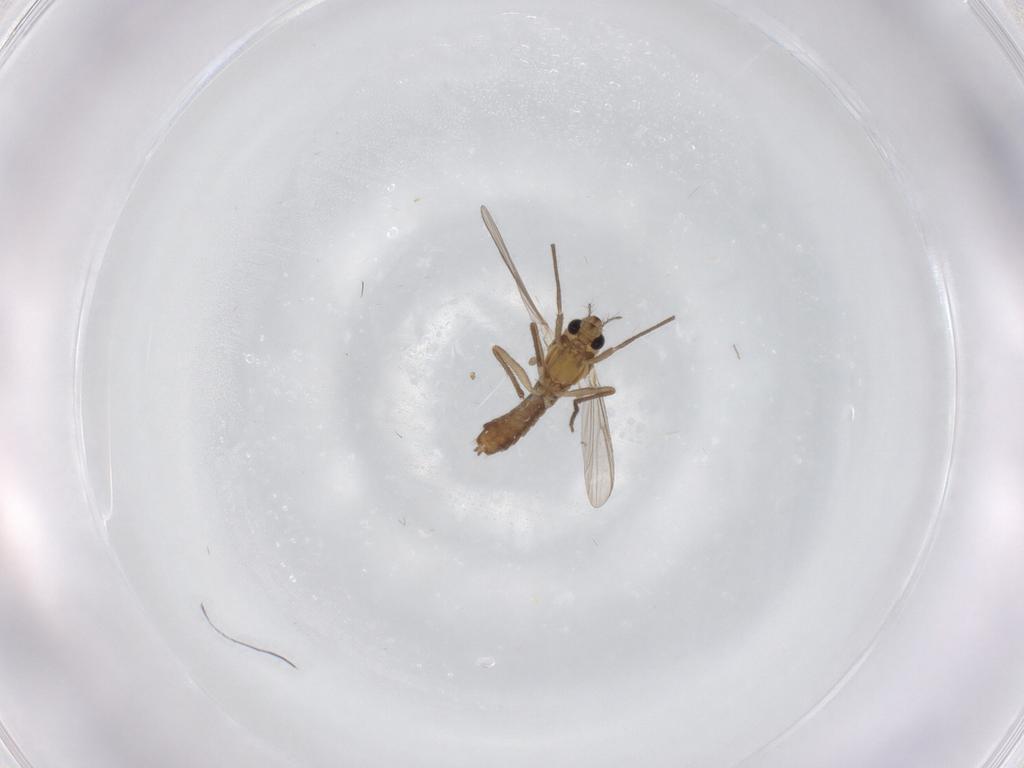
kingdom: Animalia
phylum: Arthropoda
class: Insecta
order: Diptera
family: Chironomidae
